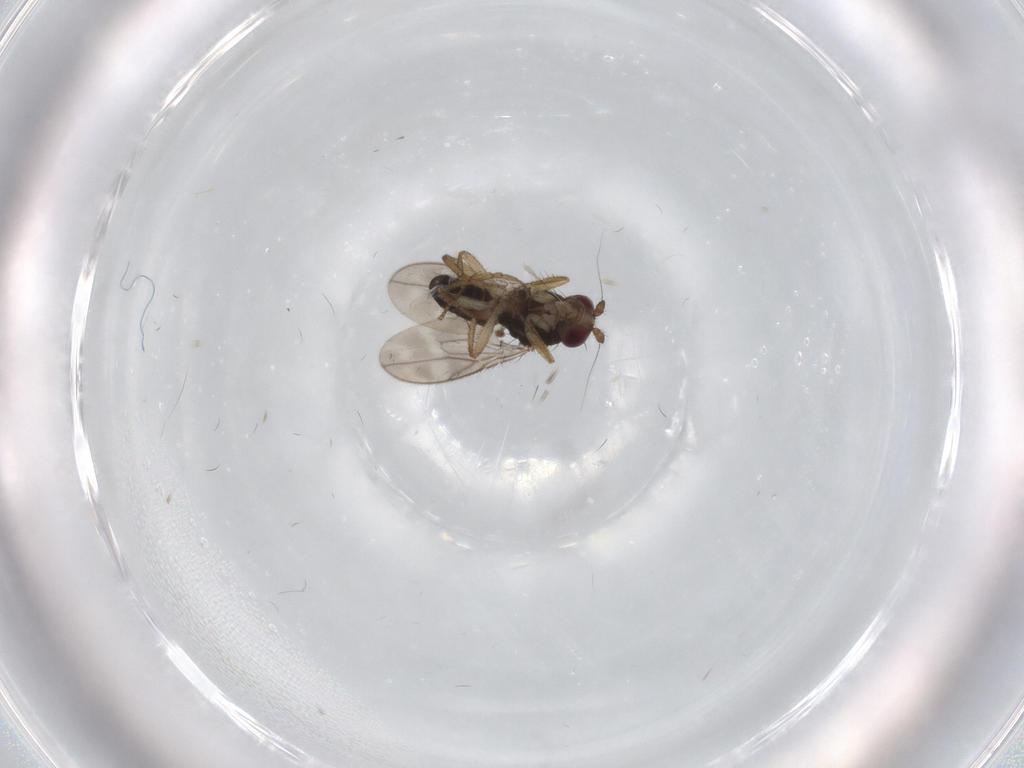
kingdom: Animalia
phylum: Arthropoda
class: Insecta
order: Diptera
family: Sphaeroceridae
